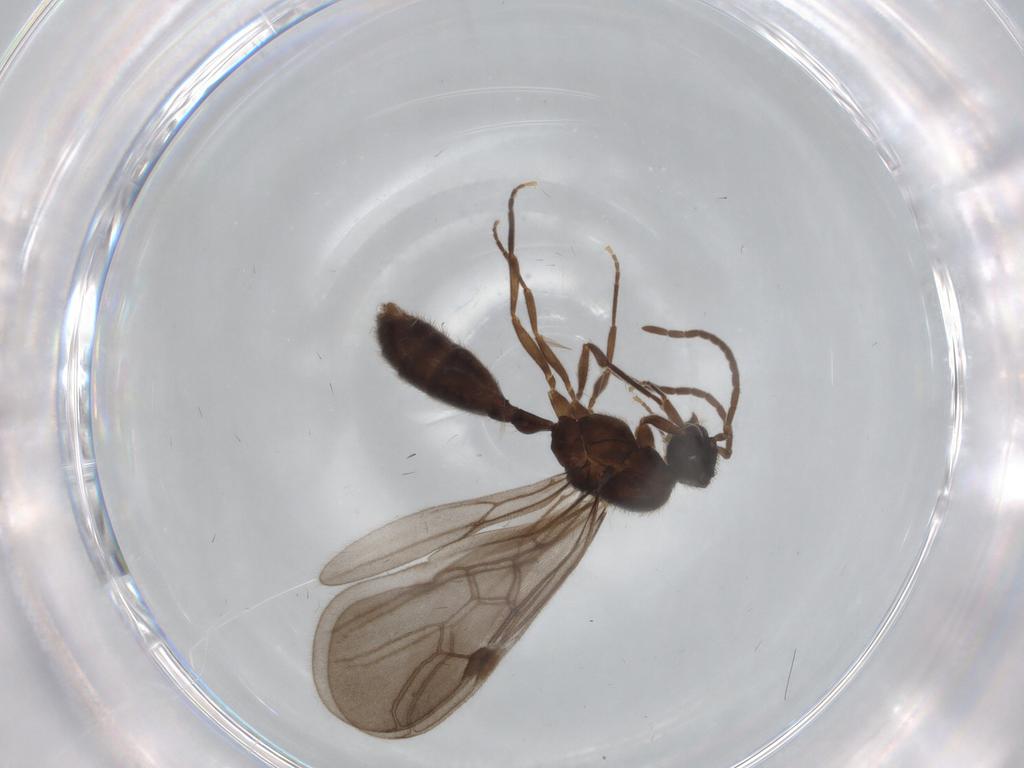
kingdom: Animalia
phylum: Arthropoda
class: Insecta
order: Hymenoptera
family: Formicidae
